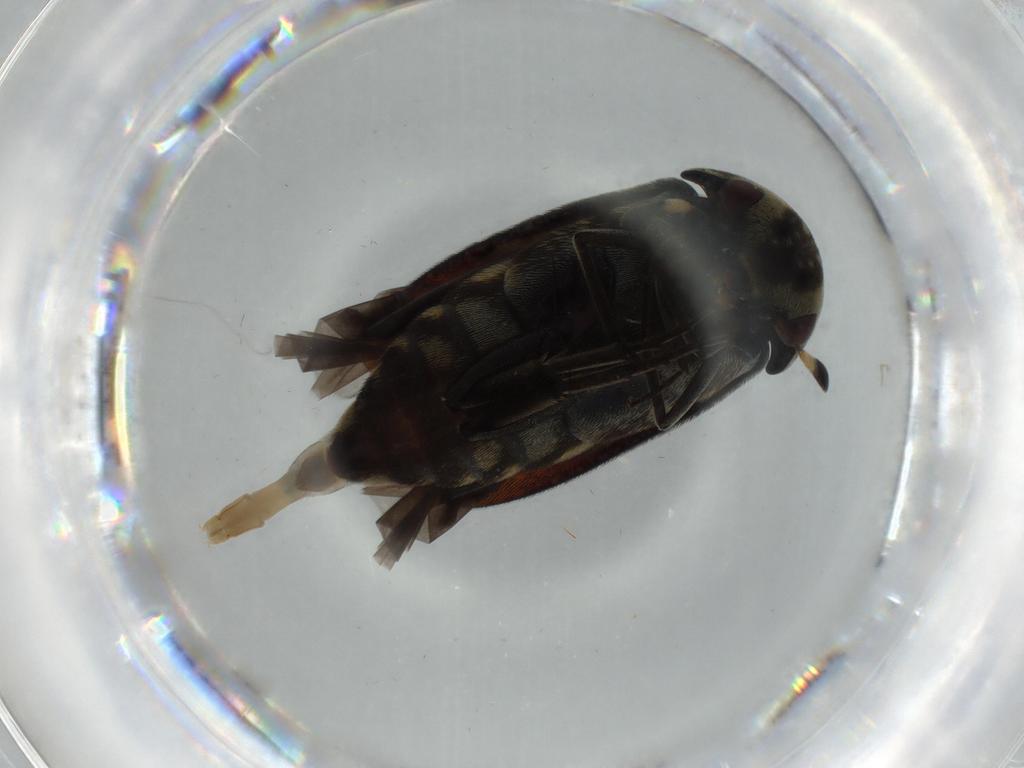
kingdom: Animalia
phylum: Arthropoda
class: Insecta
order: Coleoptera
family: Erotylidae
